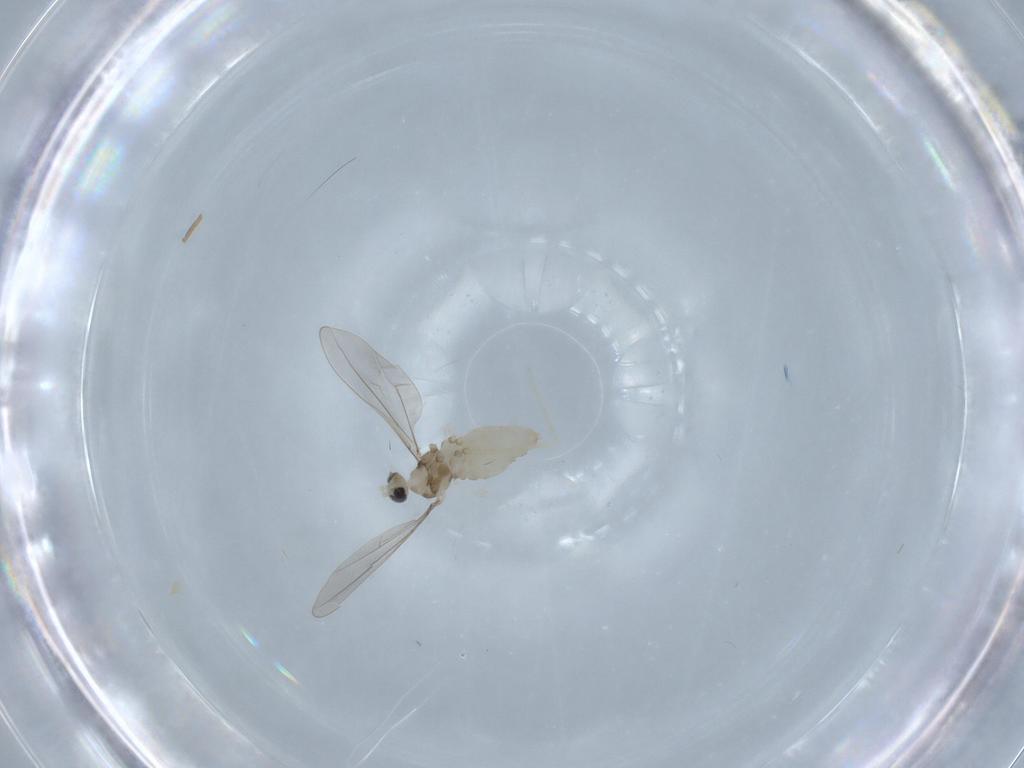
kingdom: Animalia
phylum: Arthropoda
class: Insecta
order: Diptera
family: Cecidomyiidae
